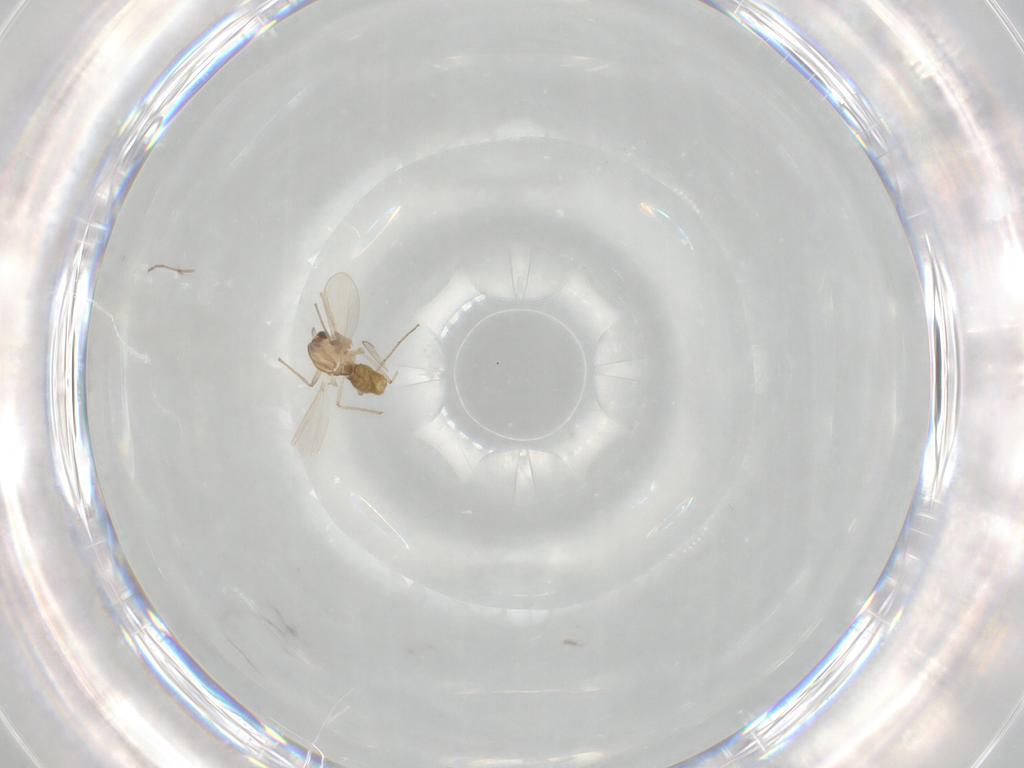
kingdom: Animalia
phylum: Arthropoda
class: Insecta
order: Diptera
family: Chironomidae
